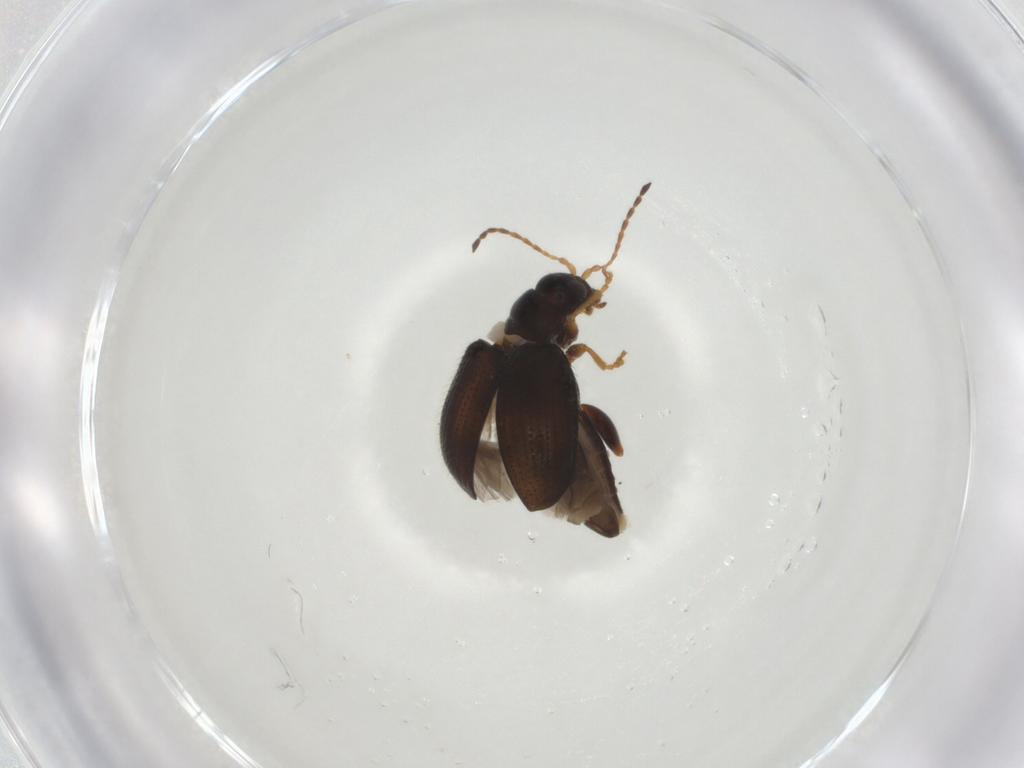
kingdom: Animalia
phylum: Arthropoda
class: Insecta
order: Coleoptera
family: Chrysomelidae
